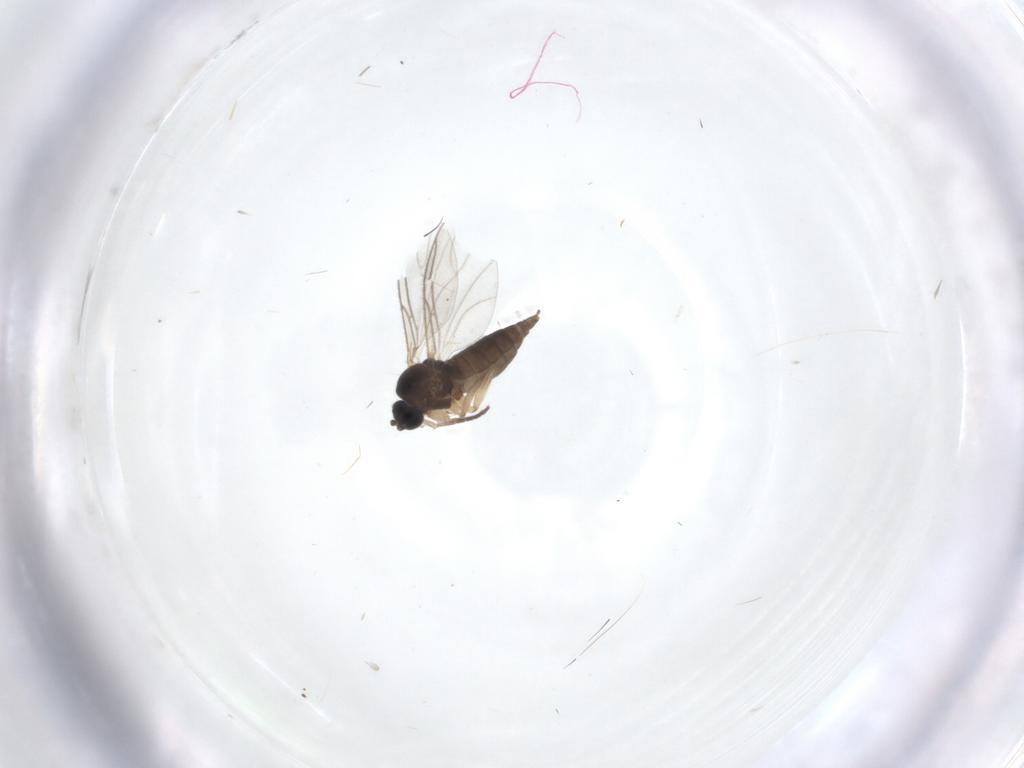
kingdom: Animalia
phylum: Arthropoda
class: Insecta
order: Diptera
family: Sciaridae
